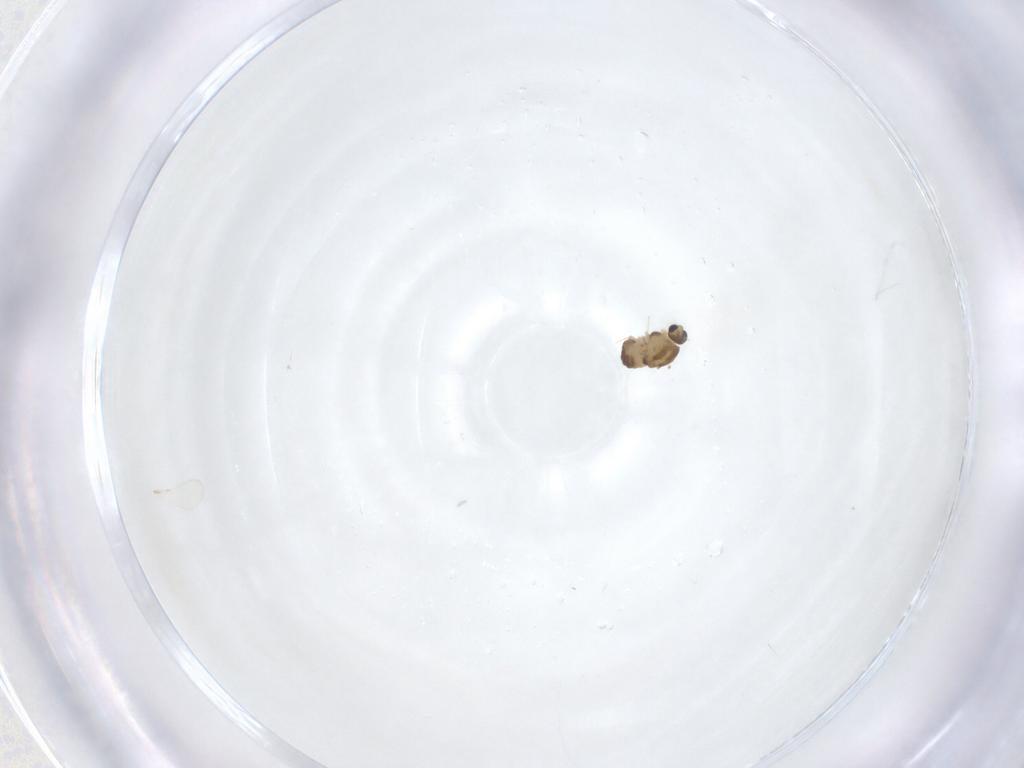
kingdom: Animalia
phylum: Arthropoda
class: Insecta
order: Diptera
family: Chironomidae
